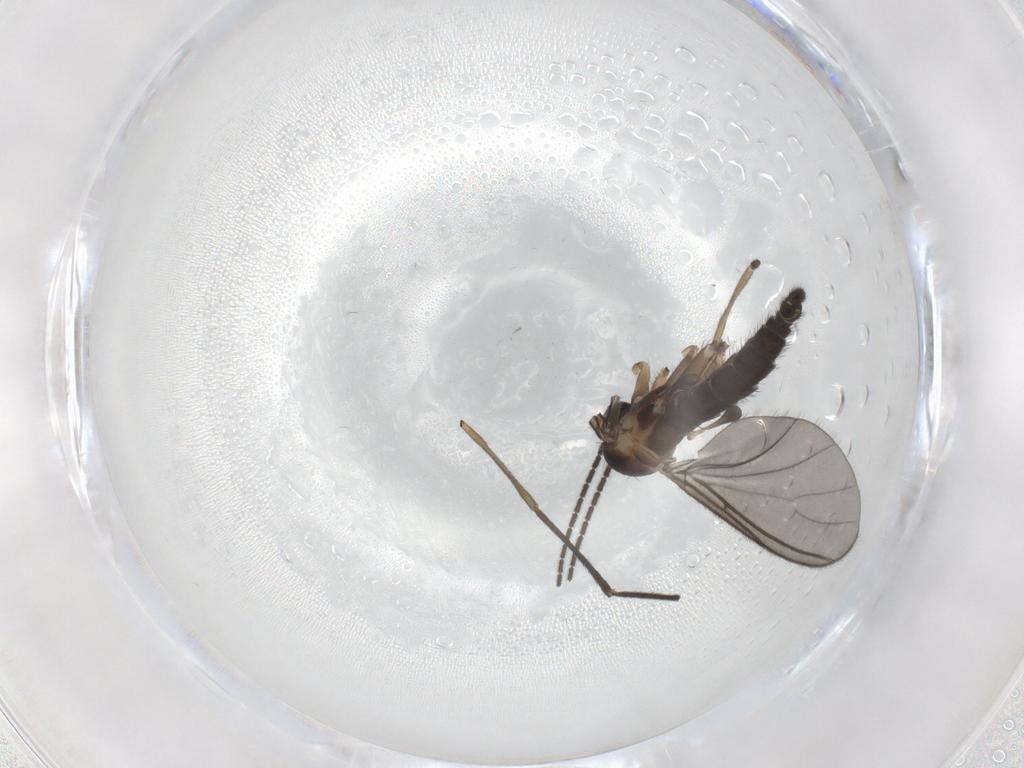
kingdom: Animalia
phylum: Arthropoda
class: Insecta
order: Diptera
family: Sciaridae
